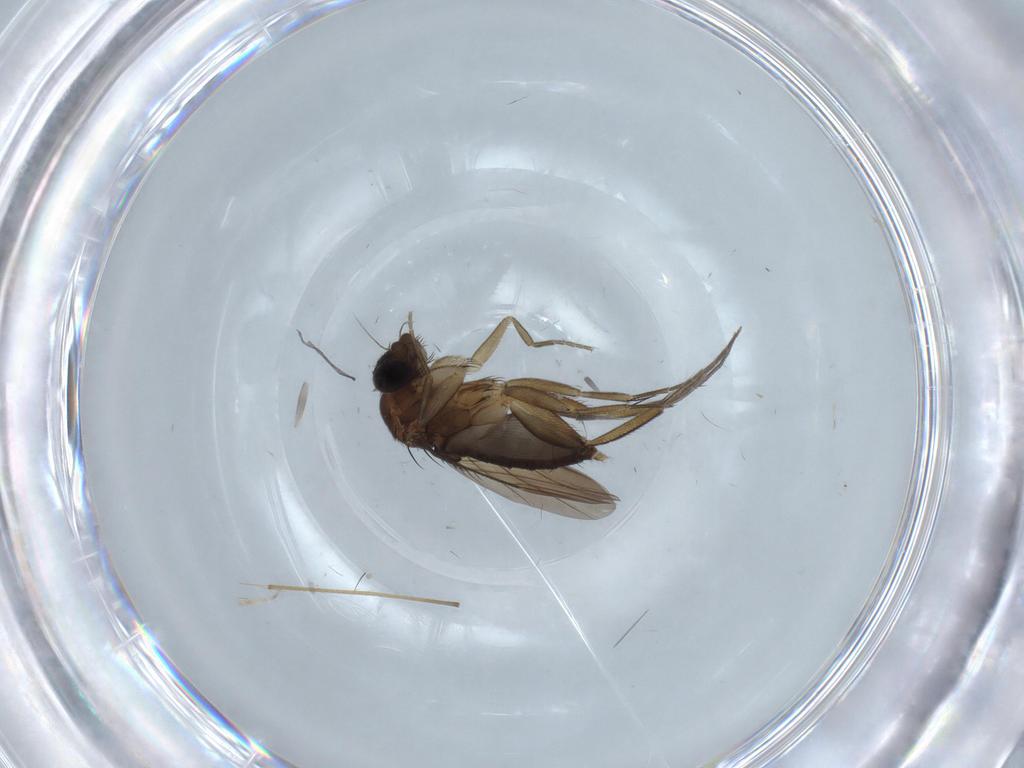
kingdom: Animalia
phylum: Arthropoda
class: Insecta
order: Diptera
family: Phoridae
